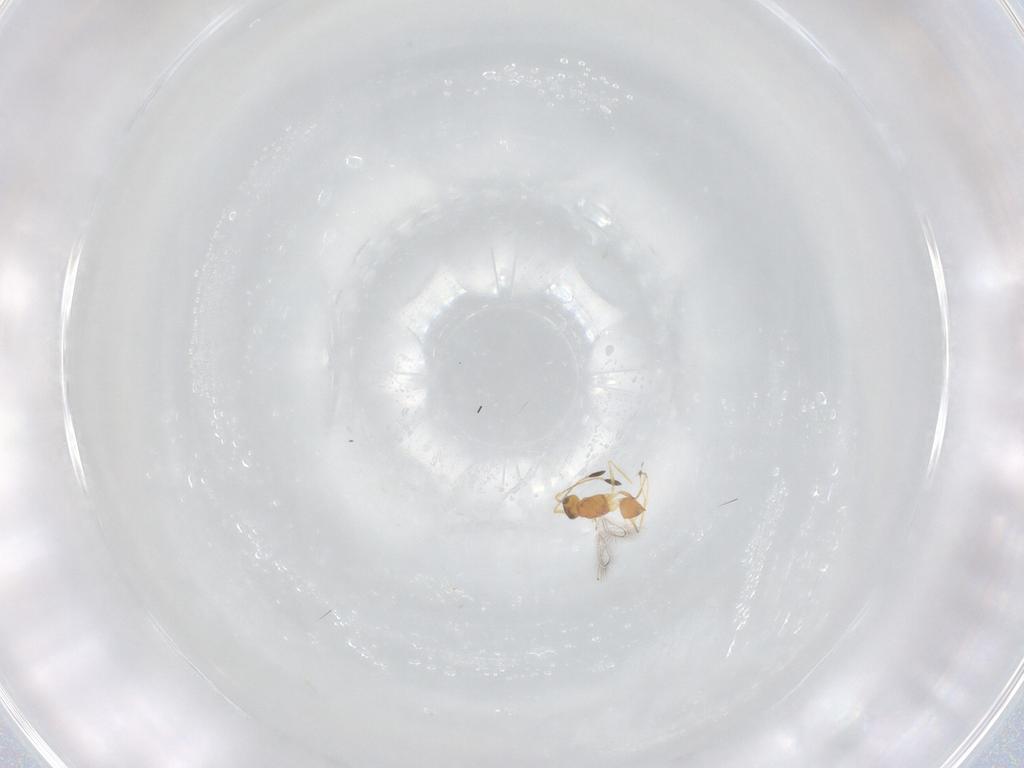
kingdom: Animalia
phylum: Arthropoda
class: Insecta
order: Hymenoptera
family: Mymaridae
